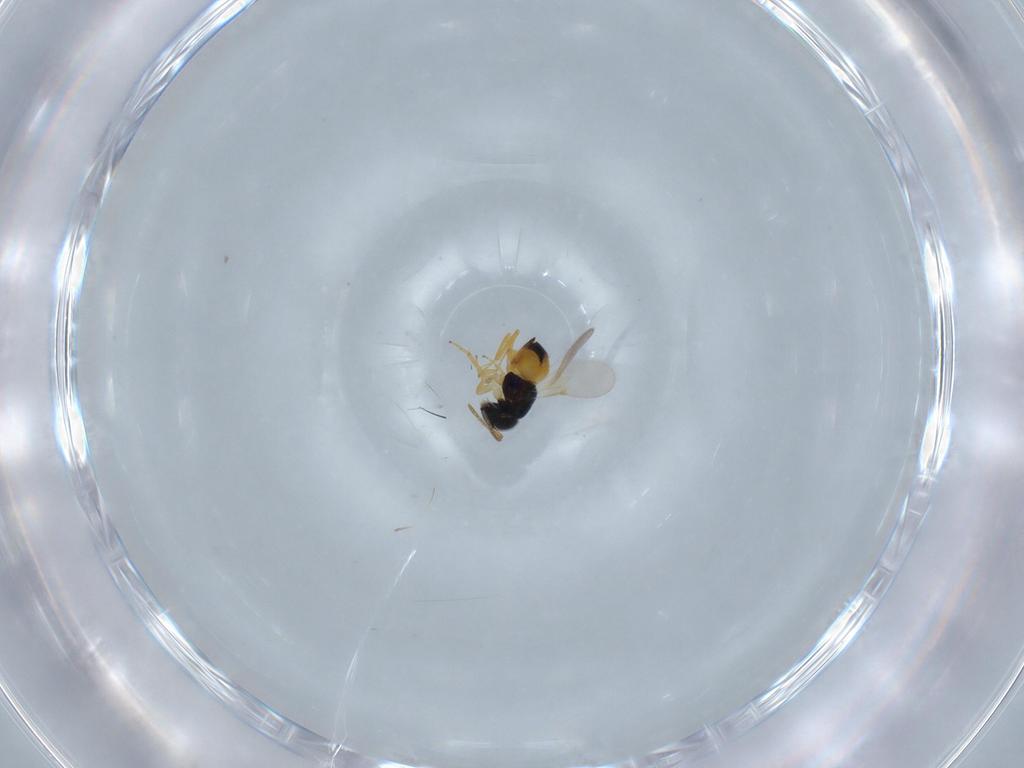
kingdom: Animalia
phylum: Arthropoda
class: Insecta
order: Hymenoptera
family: Encyrtidae
